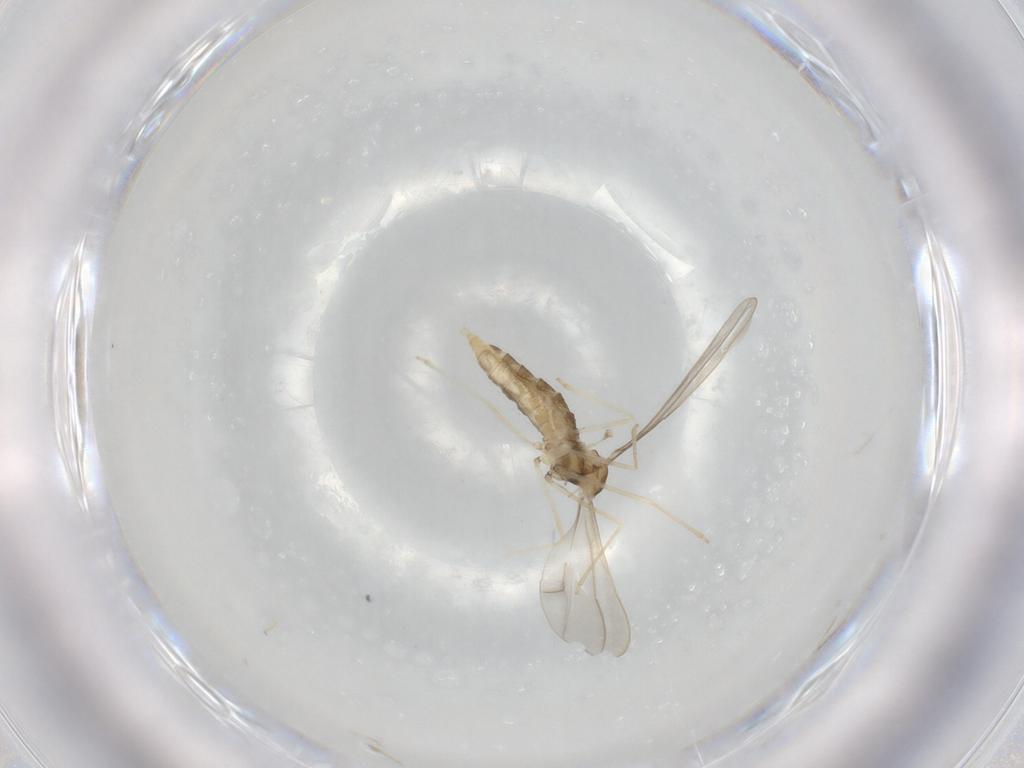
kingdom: Animalia
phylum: Arthropoda
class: Insecta
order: Diptera
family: Cecidomyiidae
